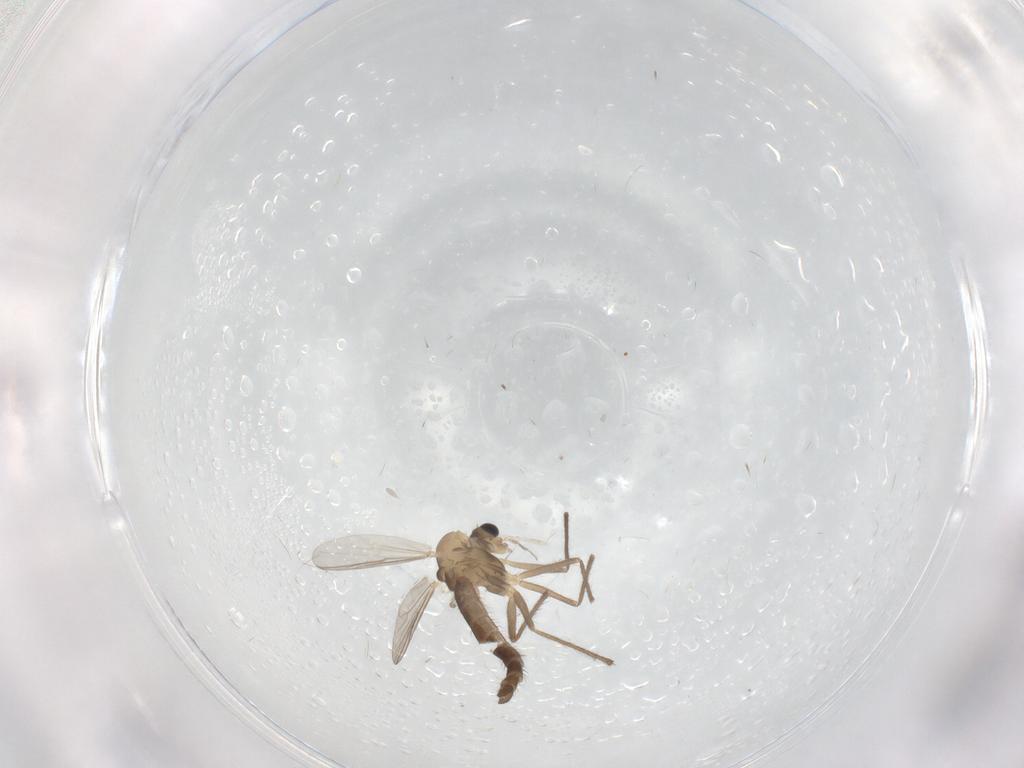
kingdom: Animalia
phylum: Arthropoda
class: Insecta
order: Diptera
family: Chironomidae
